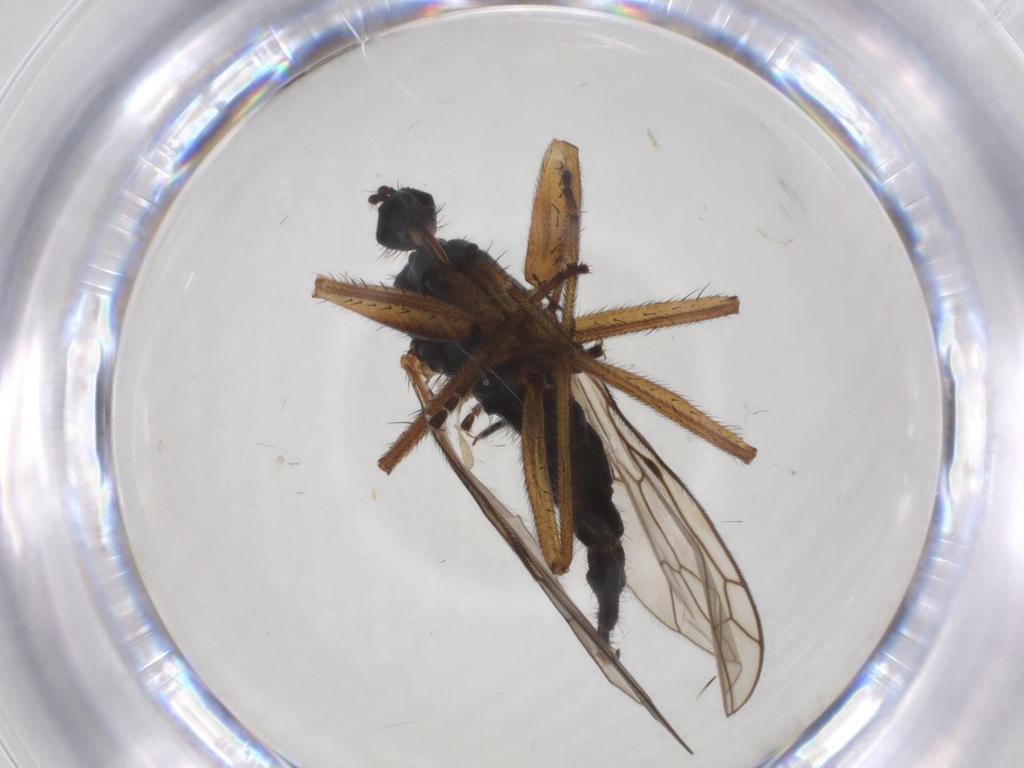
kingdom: Animalia
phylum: Arthropoda
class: Insecta
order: Diptera
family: Empididae
